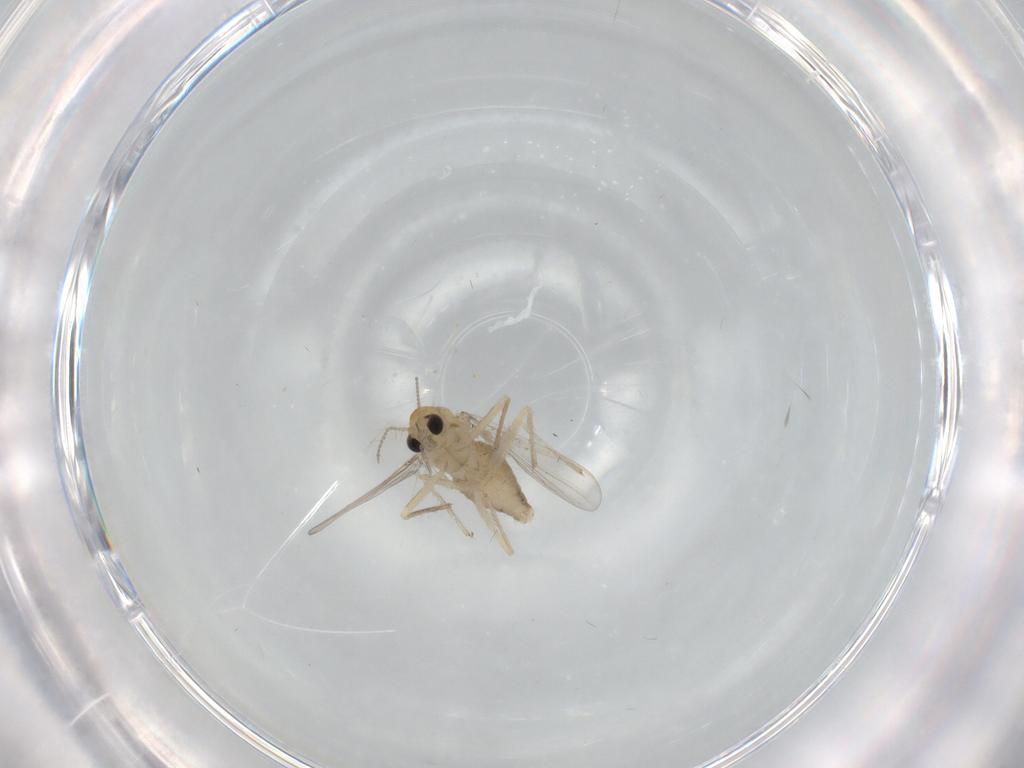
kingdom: Animalia
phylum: Arthropoda
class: Insecta
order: Diptera
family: Chironomidae
